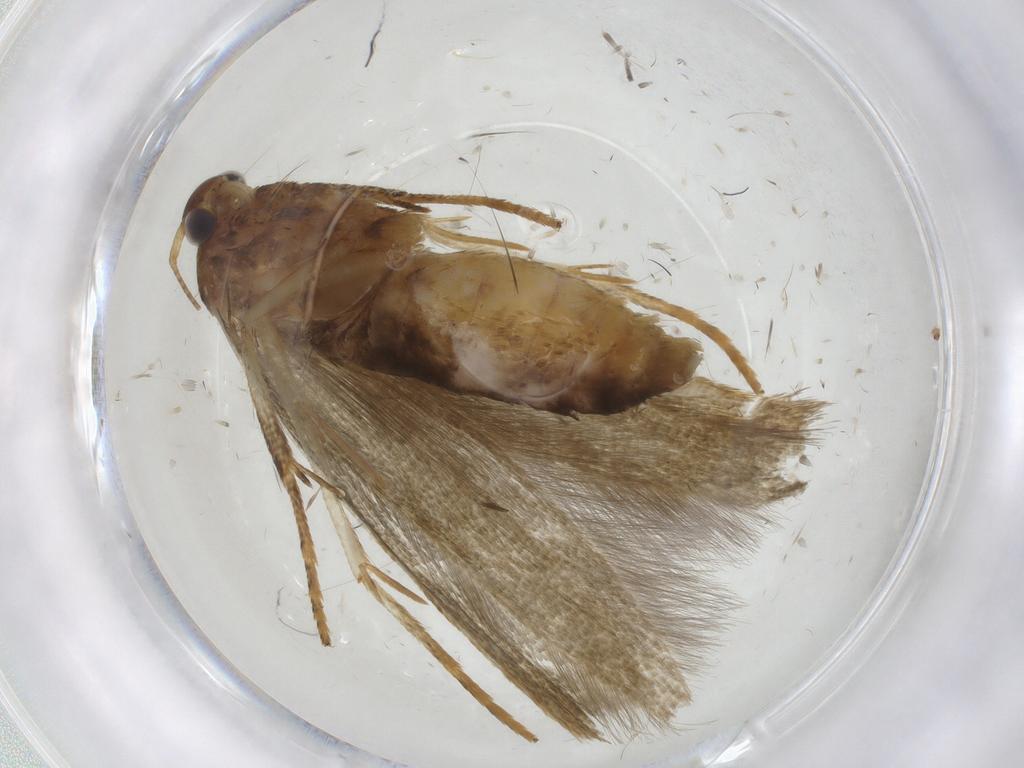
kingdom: Animalia
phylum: Arthropoda
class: Insecta
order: Lepidoptera
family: Blastobasidae
